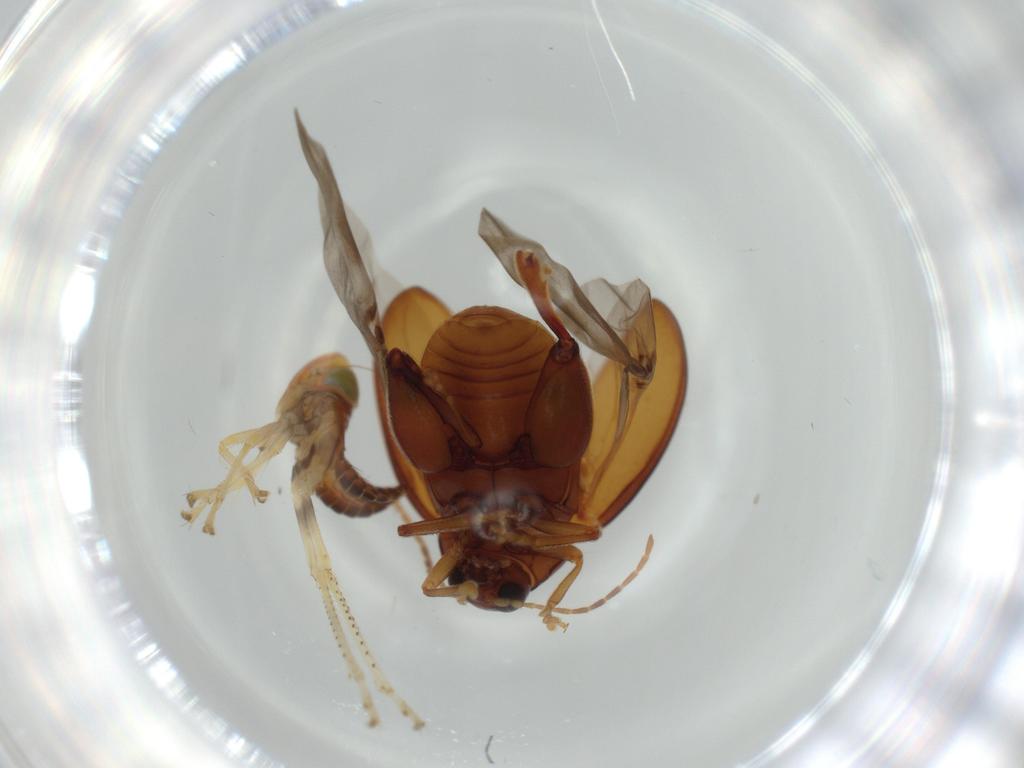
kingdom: Animalia
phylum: Arthropoda
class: Insecta
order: Coleoptera
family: Chrysomelidae
